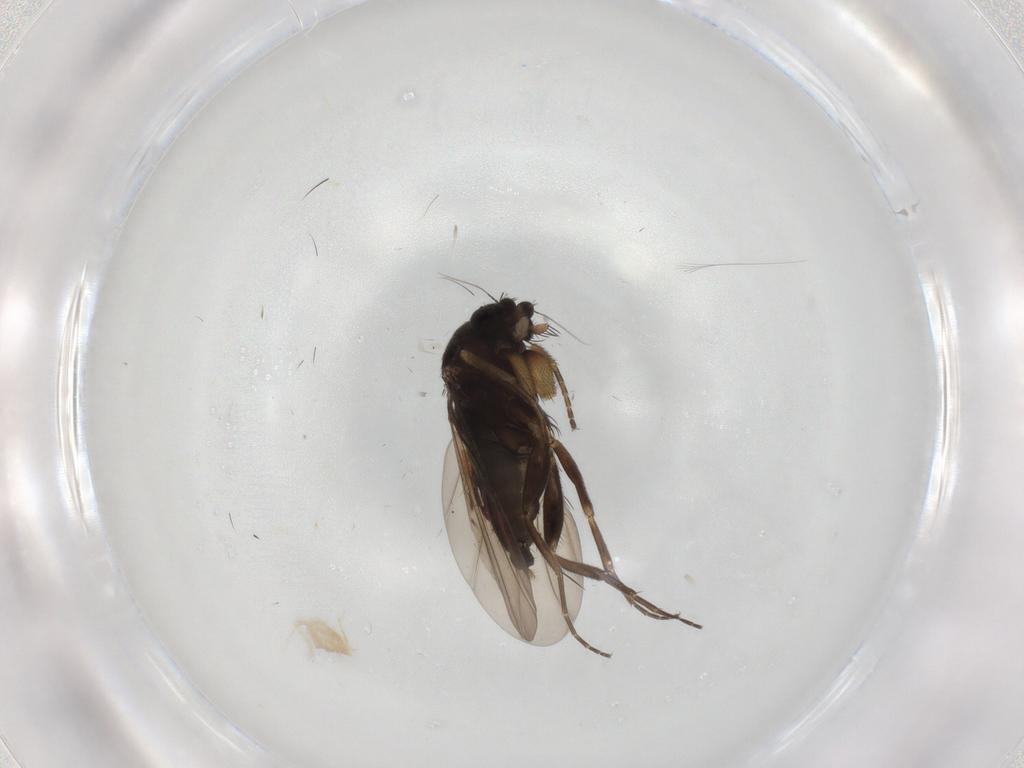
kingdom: Animalia
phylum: Arthropoda
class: Insecta
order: Diptera
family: Phoridae
